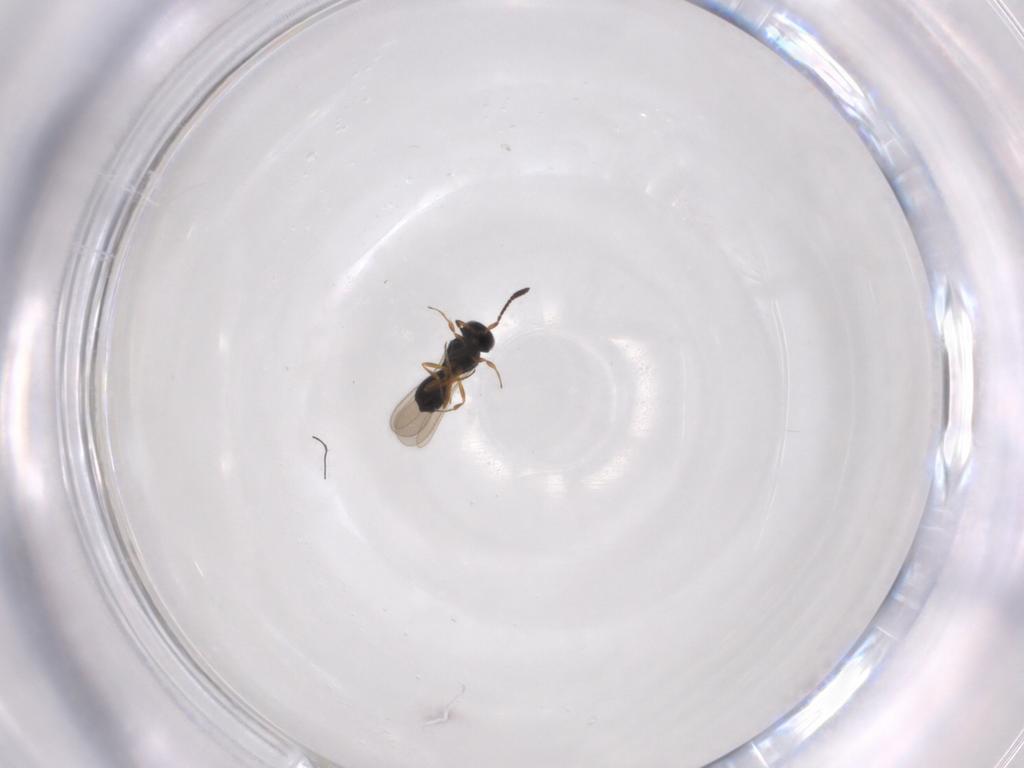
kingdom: Animalia
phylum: Arthropoda
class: Insecta
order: Hymenoptera
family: Scelionidae
